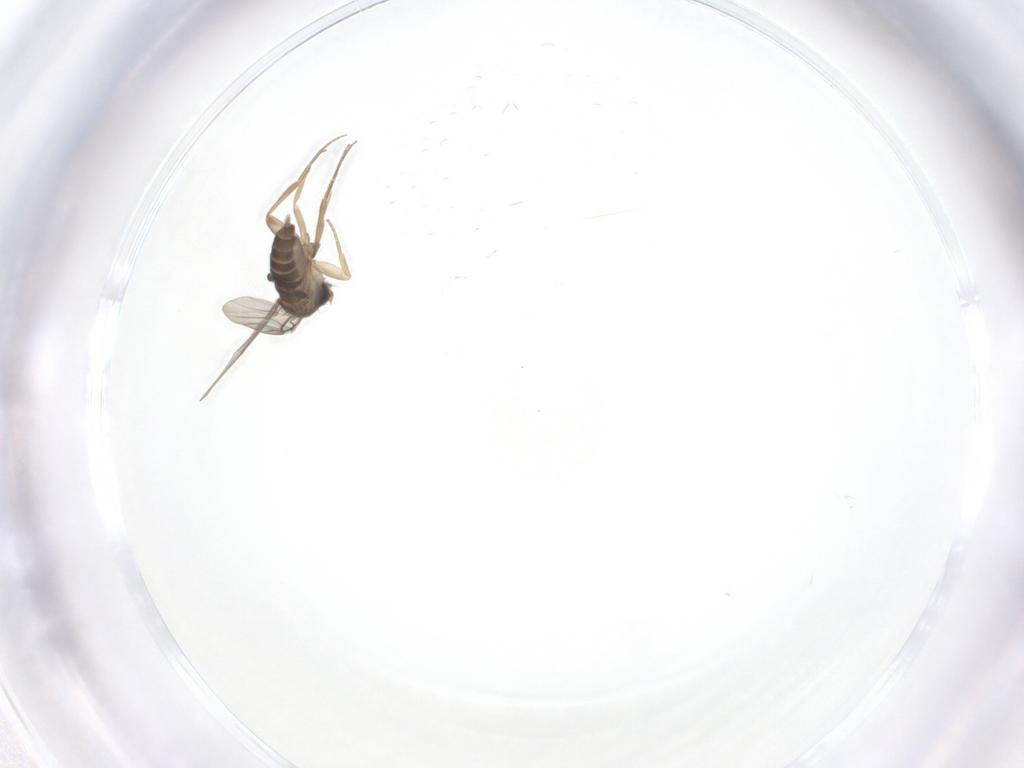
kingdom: Animalia
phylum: Arthropoda
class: Insecta
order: Diptera
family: Phoridae
